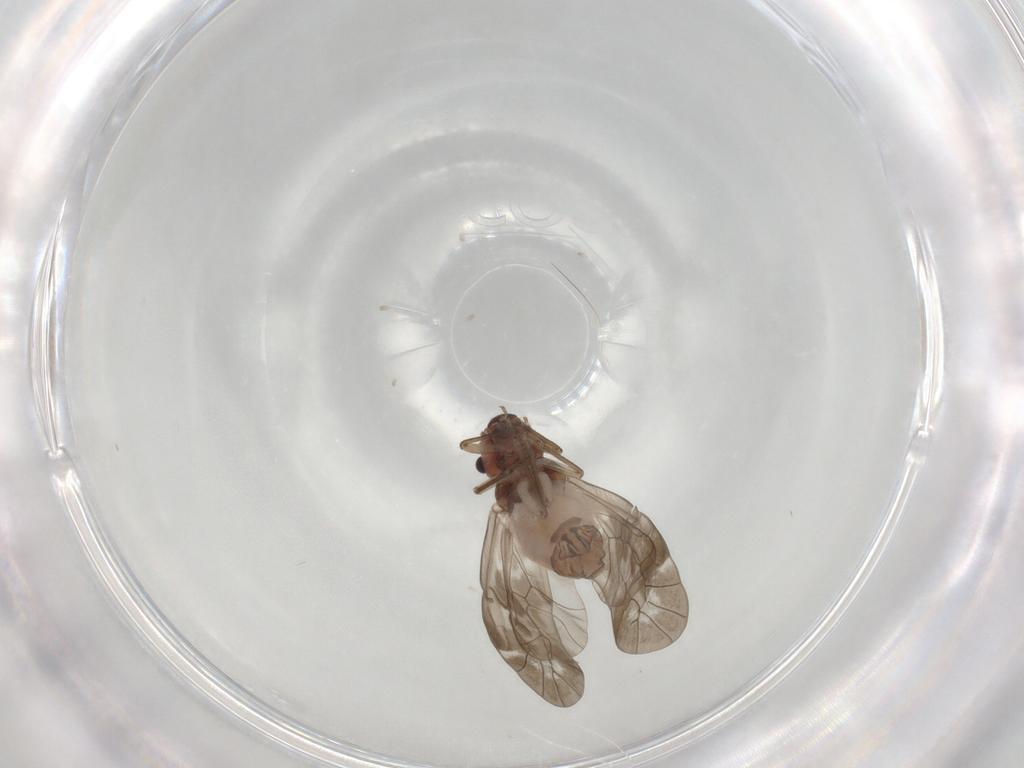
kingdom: Animalia
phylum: Arthropoda
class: Insecta
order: Psocodea
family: Peripsocidae
